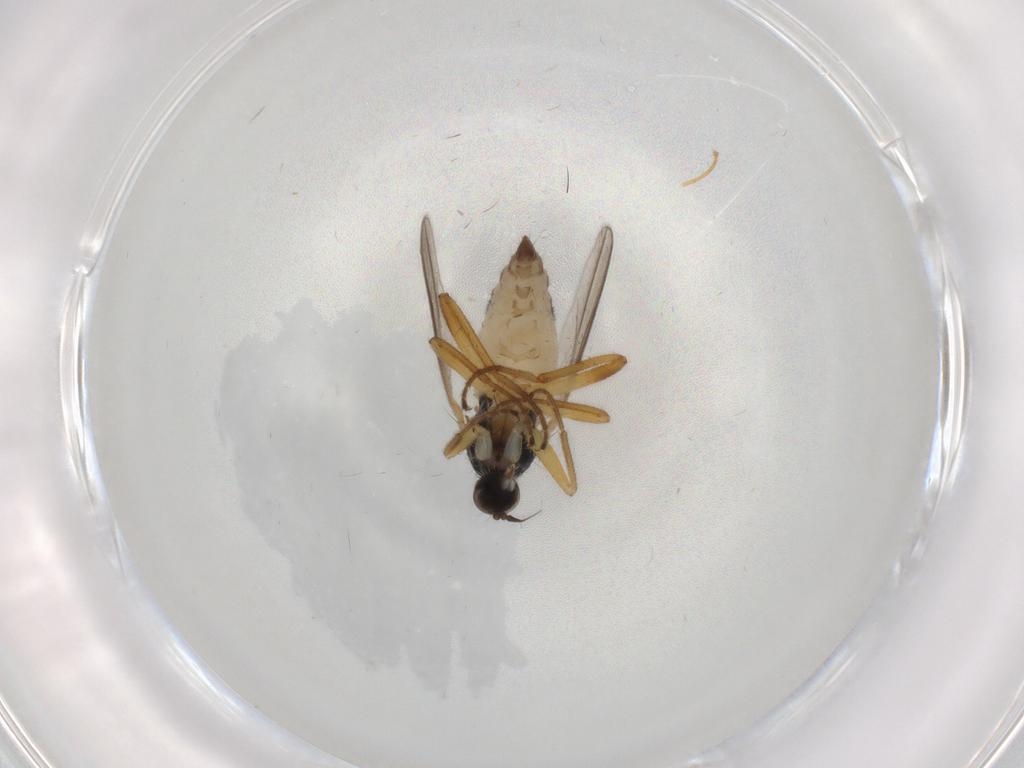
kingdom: Animalia
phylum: Arthropoda
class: Insecta
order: Diptera
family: Hybotidae
